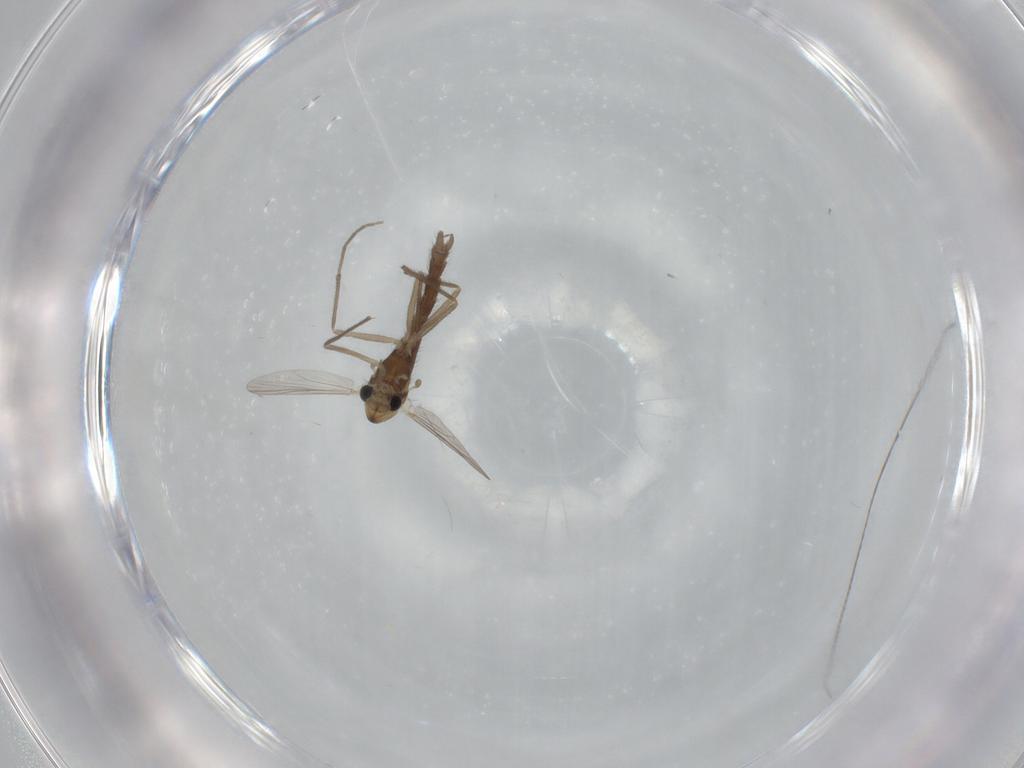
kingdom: Animalia
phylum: Arthropoda
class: Insecta
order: Diptera
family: Chironomidae
